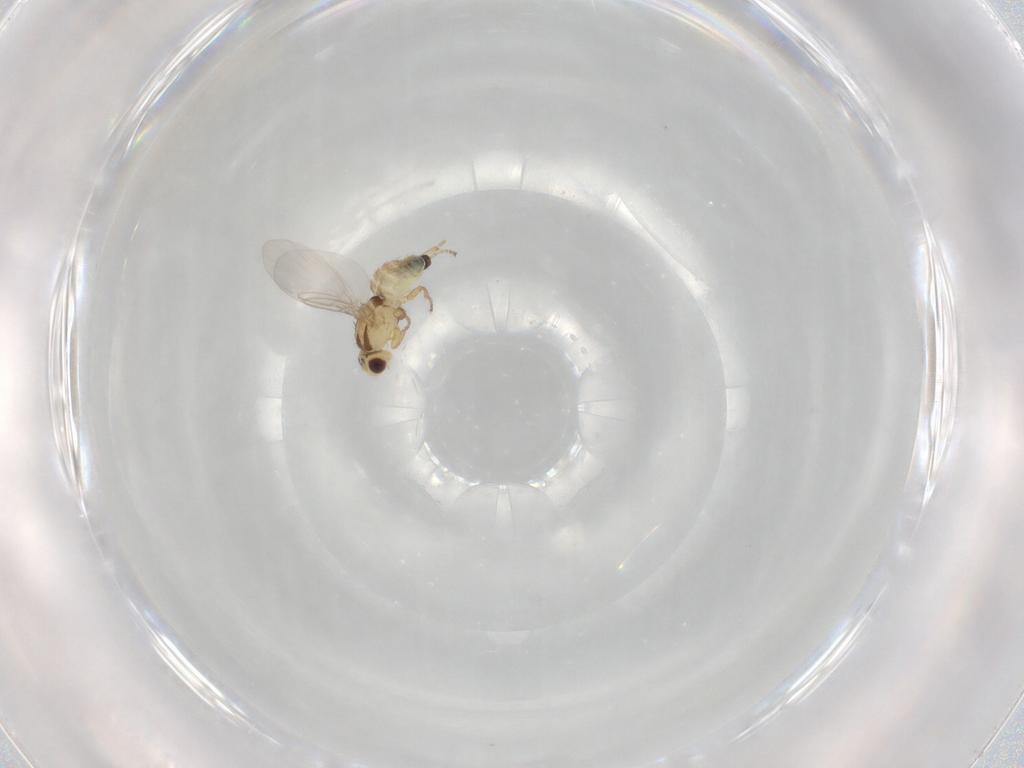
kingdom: Animalia
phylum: Arthropoda
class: Insecta
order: Diptera
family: Agromyzidae
